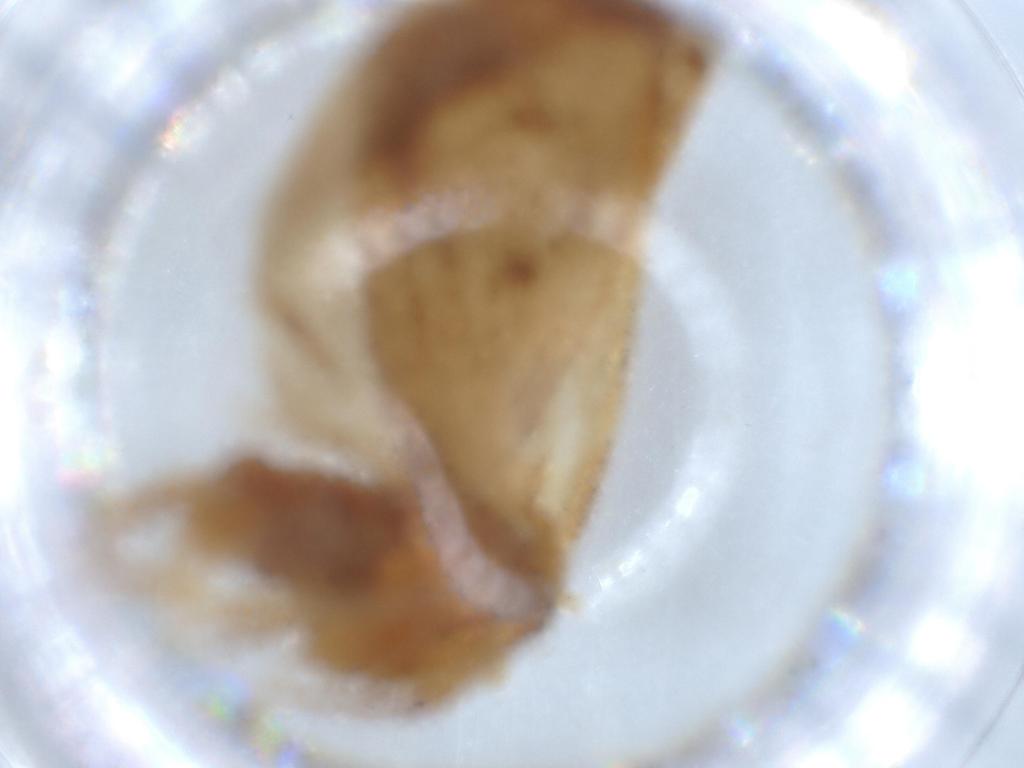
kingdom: Animalia
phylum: Arthropoda
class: Insecta
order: Lepidoptera
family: Oecophoridae
